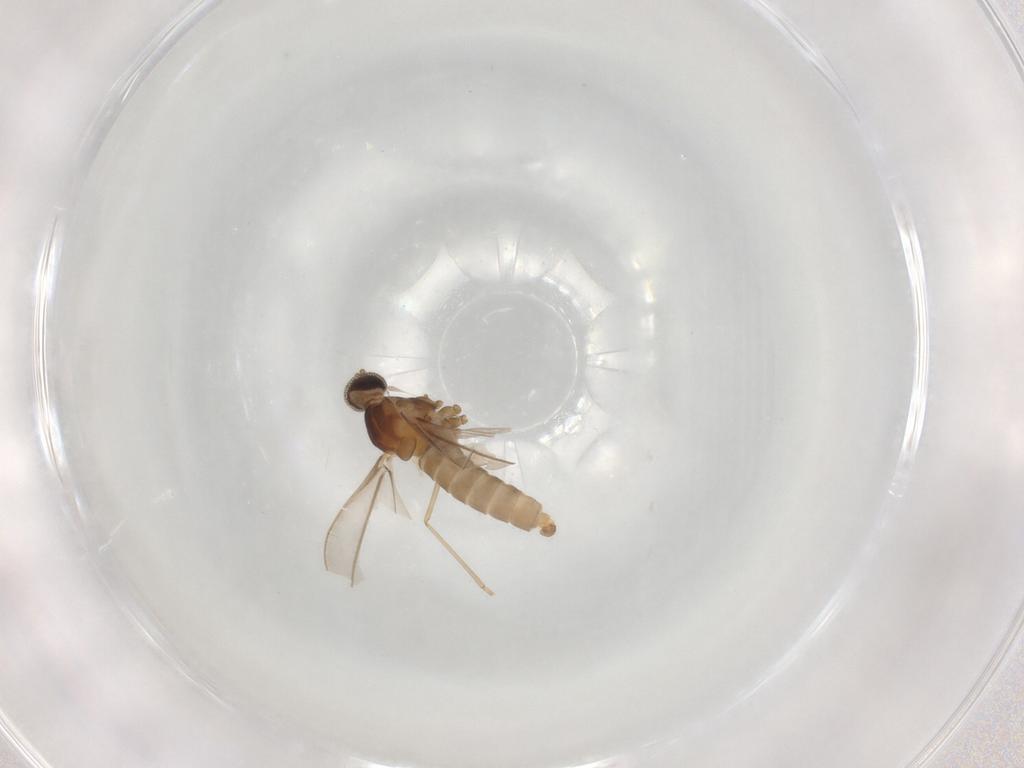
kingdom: Animalia
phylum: Arthropoda
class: Insecta
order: Diptera
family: Cecidomyiidae
